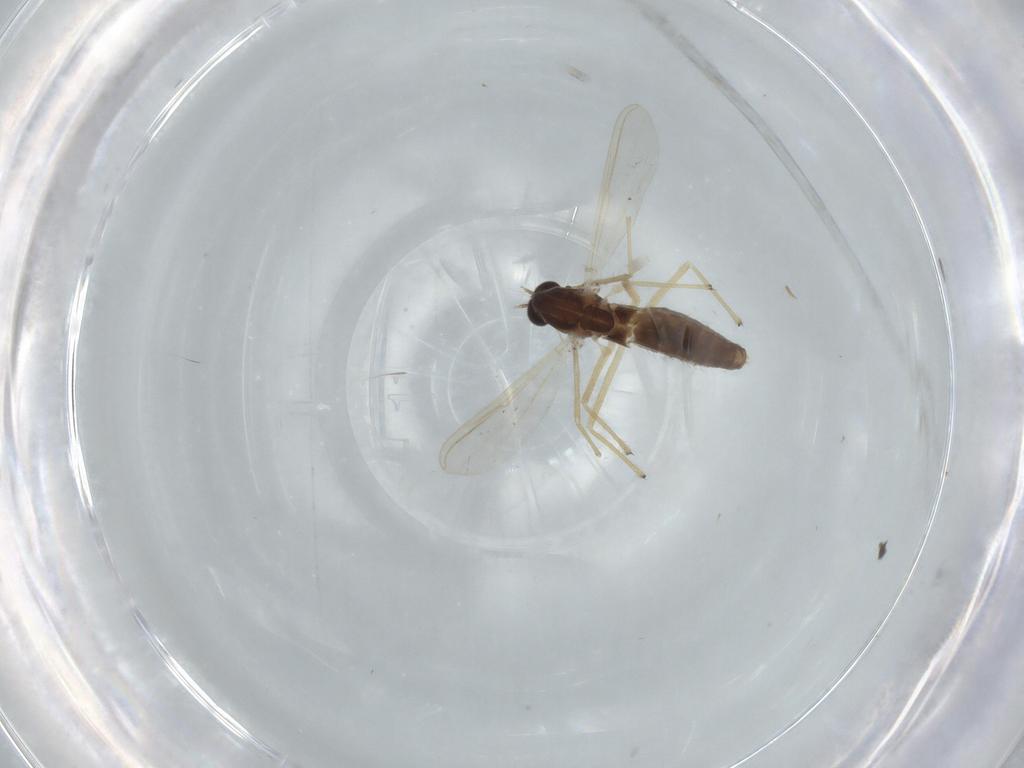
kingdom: Animalia
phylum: Arthropoda
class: Insecta
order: Diptera
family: Chironomidae
